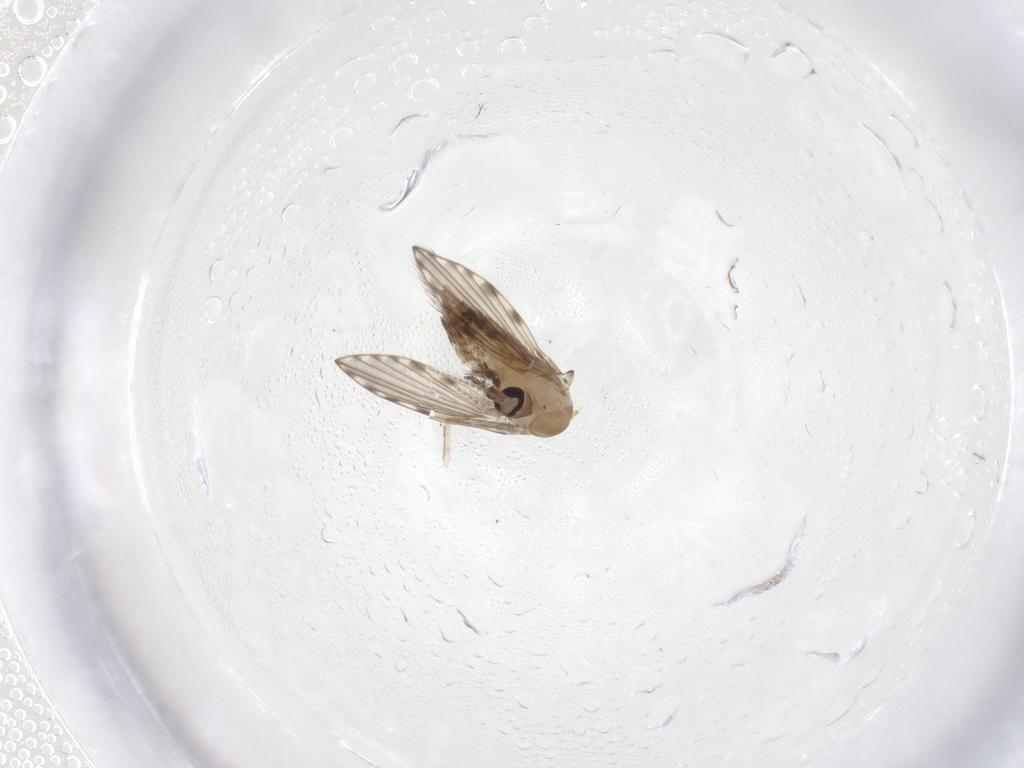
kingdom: Animalia
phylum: Arthropoda
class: Insecta
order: Diptera
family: Psychodidae
